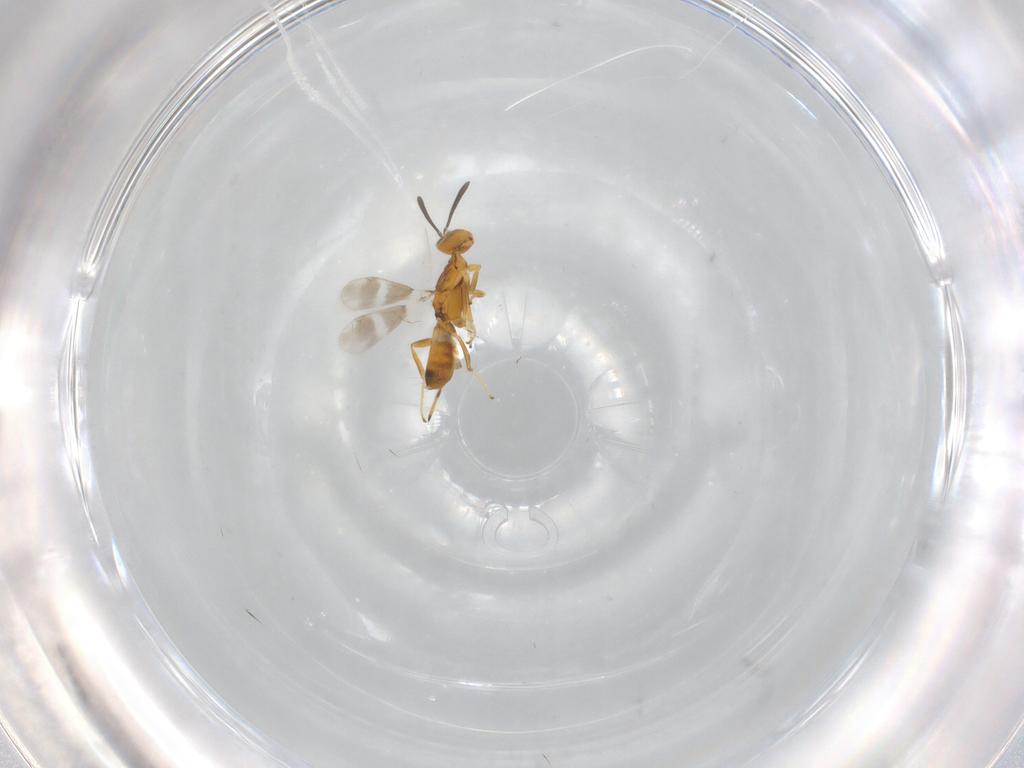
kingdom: Animalia
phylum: Arthropoda
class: Insecta
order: Hymenoptera
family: Eupelmidae
